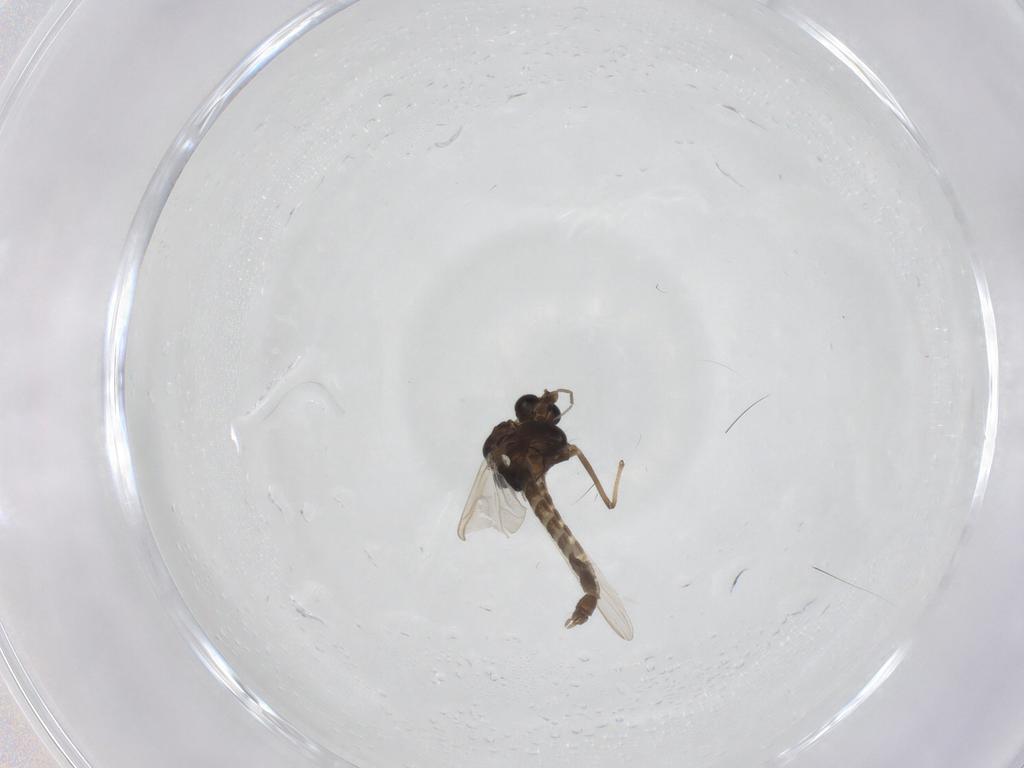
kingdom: Animalia
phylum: Arthropoda
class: Insecta
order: Diptera
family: Chironomidae
